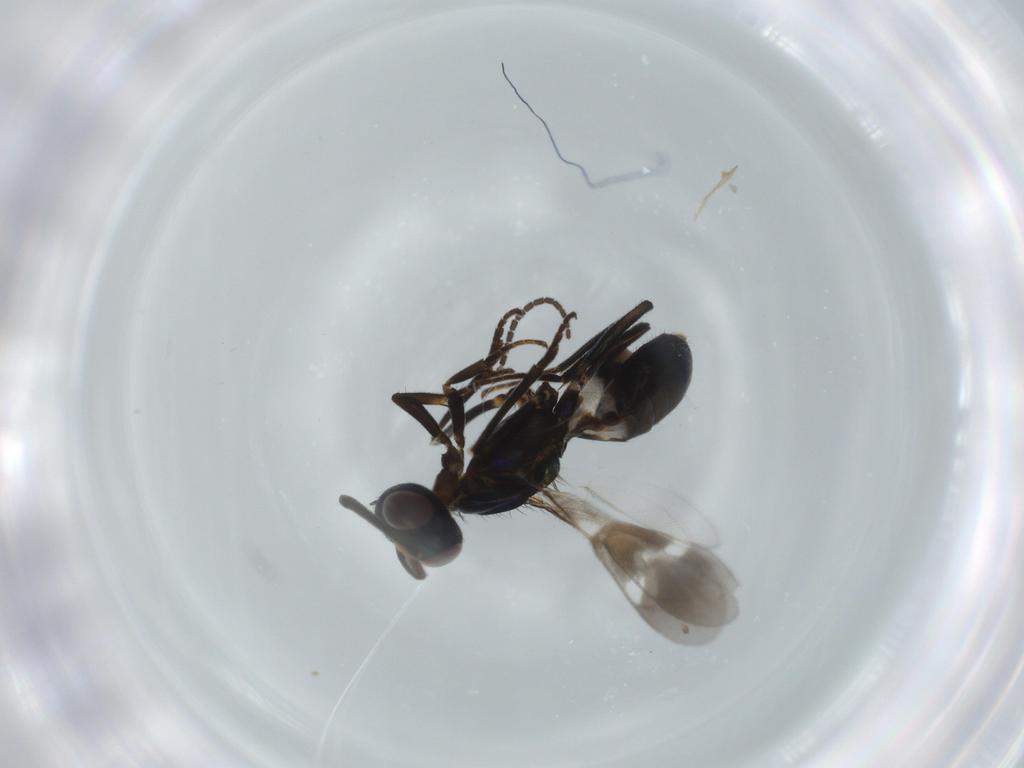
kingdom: Animalia
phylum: Arthropoda
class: Insecta
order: Hymenoptera
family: Eupelmidae
